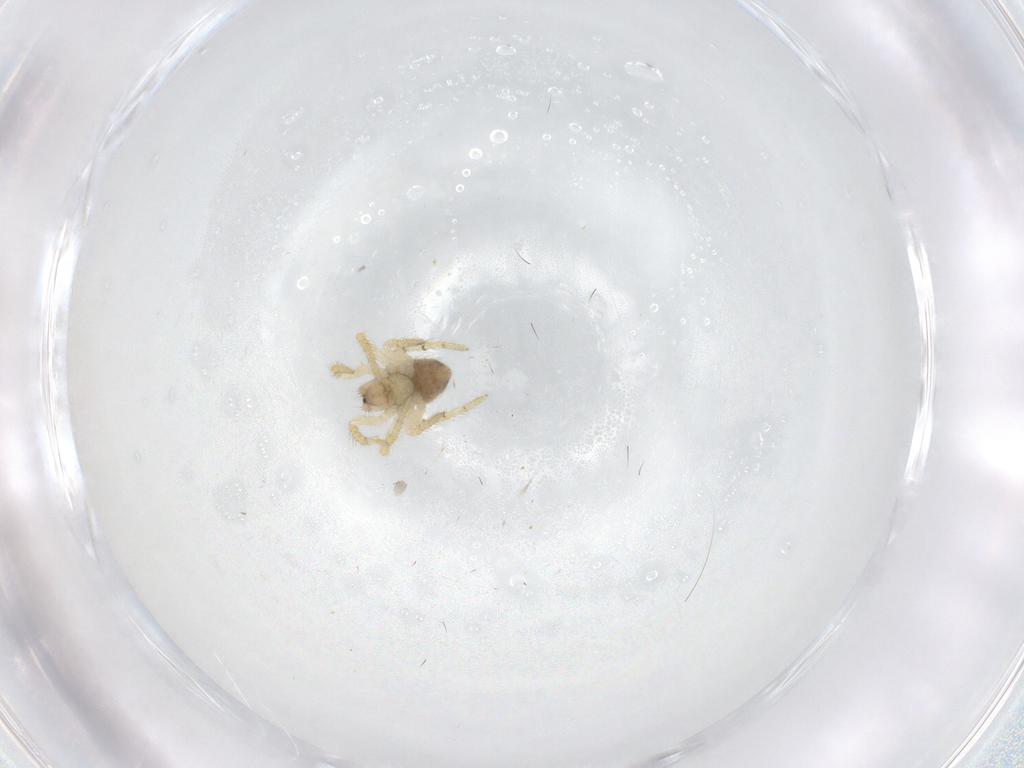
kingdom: Animalia
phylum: Arthropoda
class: Arachnida
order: Araneae
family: Theridiidae
